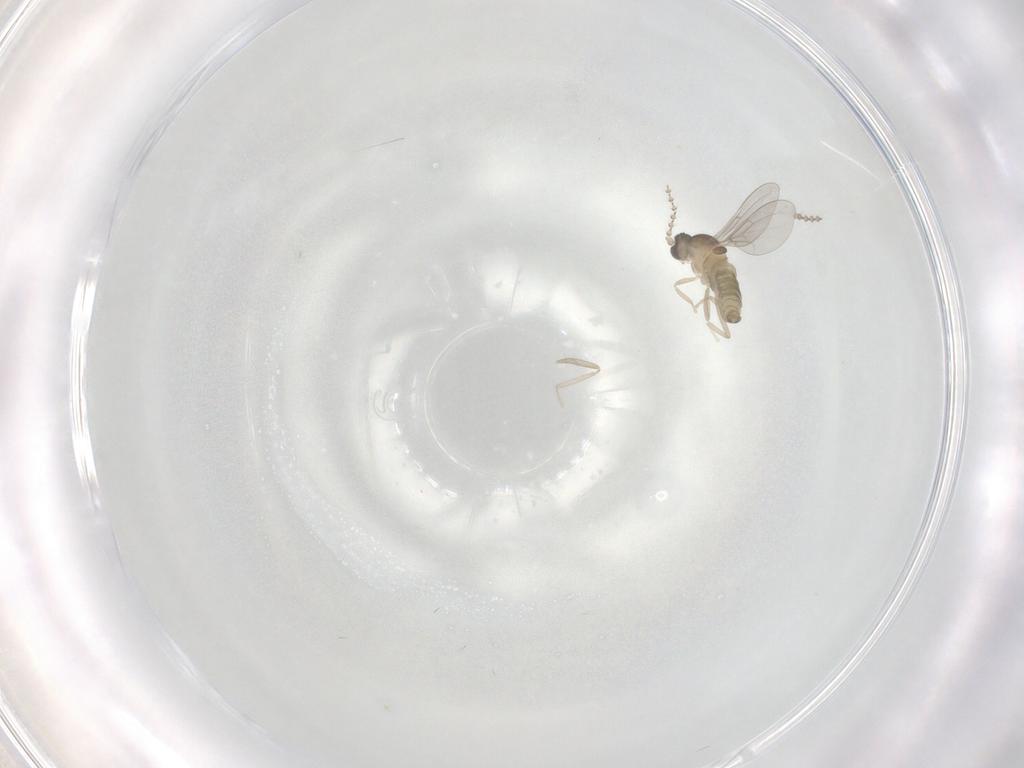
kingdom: Animalia
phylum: Arthropoda
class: Insecta
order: Diptera
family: Cecidomyiidae
